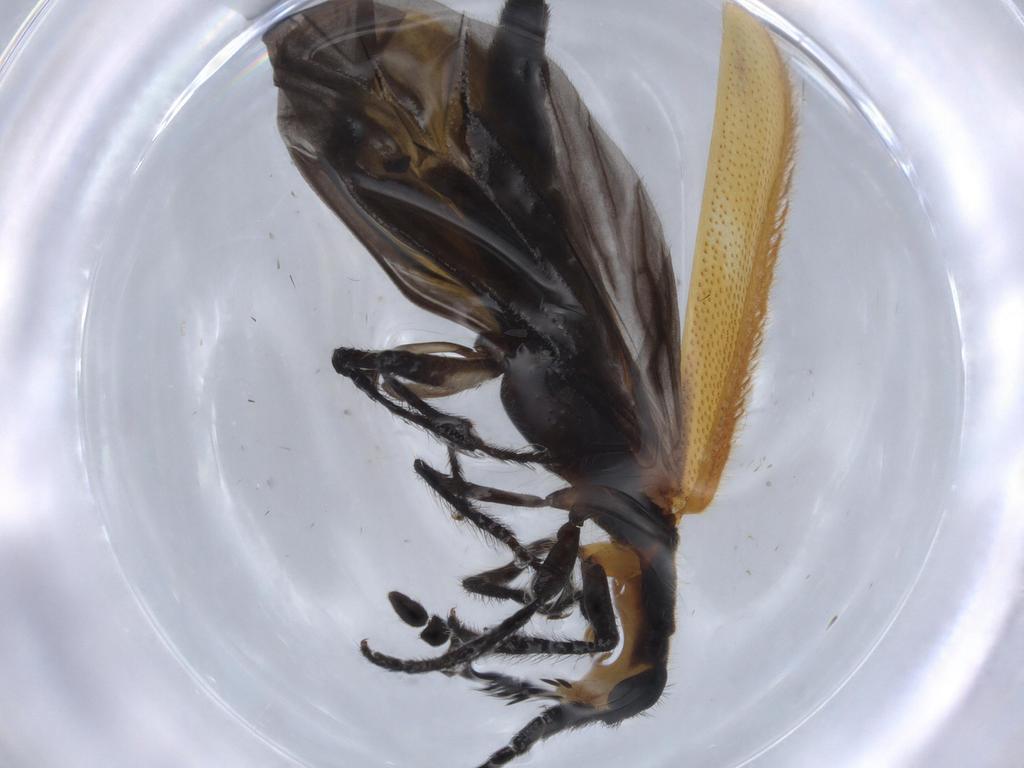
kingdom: Animalia
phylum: Arthropoda
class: Insecta
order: Coleoptera
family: Cleridae
